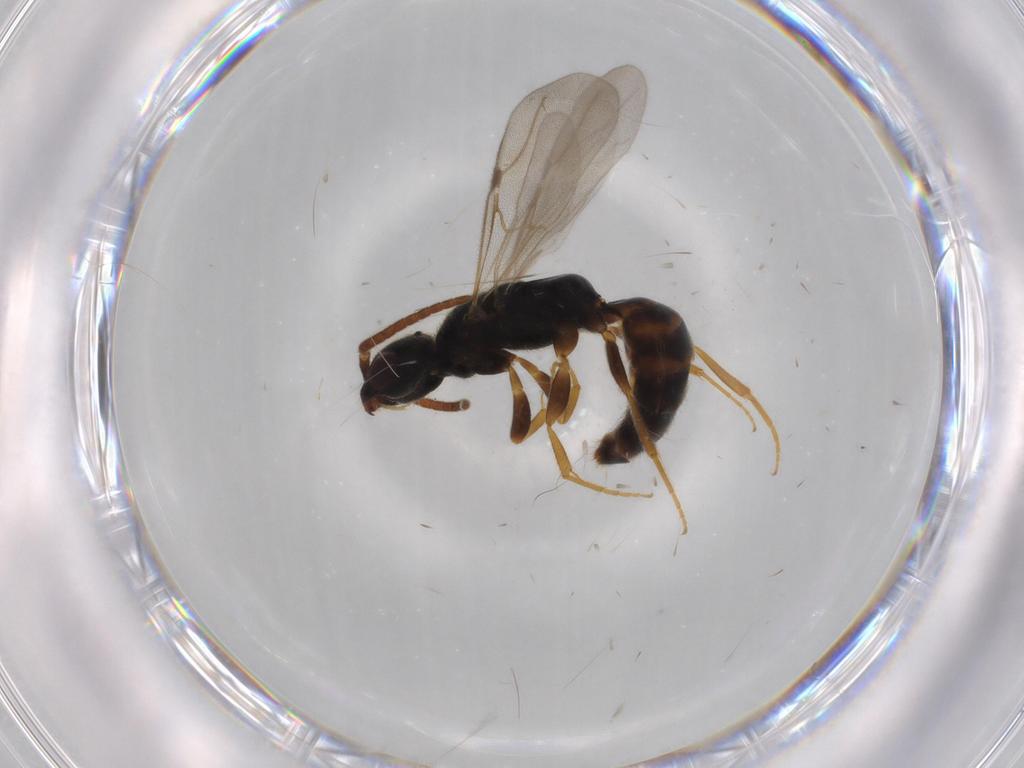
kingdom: Animalia
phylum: Arthropoda
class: Insecta
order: Hymenoptera
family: Bethylidae
